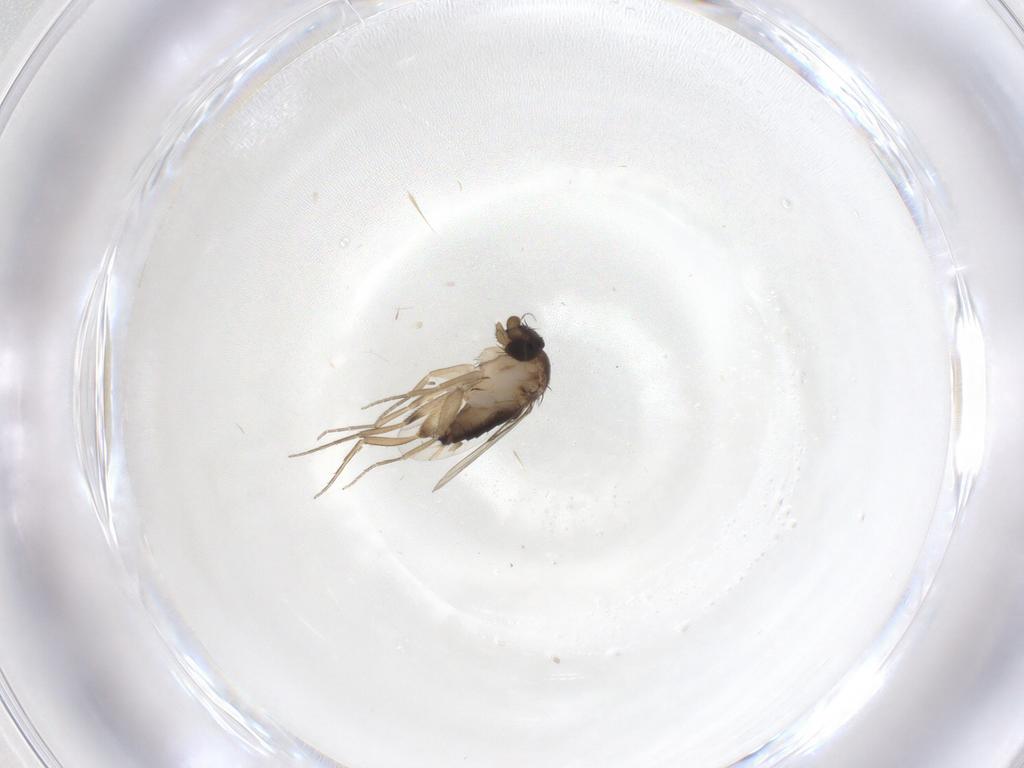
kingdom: Animalia
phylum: Arthropoda
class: Insecta
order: Diptera
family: Phoridae
